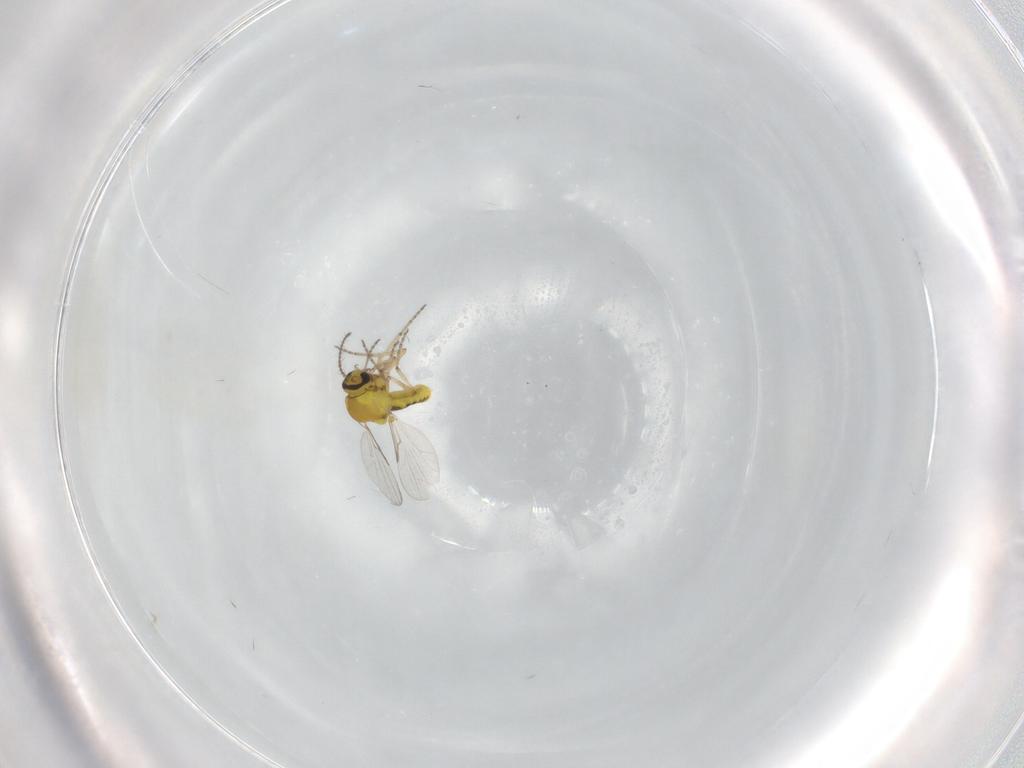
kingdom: Animalia
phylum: Arthropoda
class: Insecta
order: Diptera
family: Ceratopogonidae
